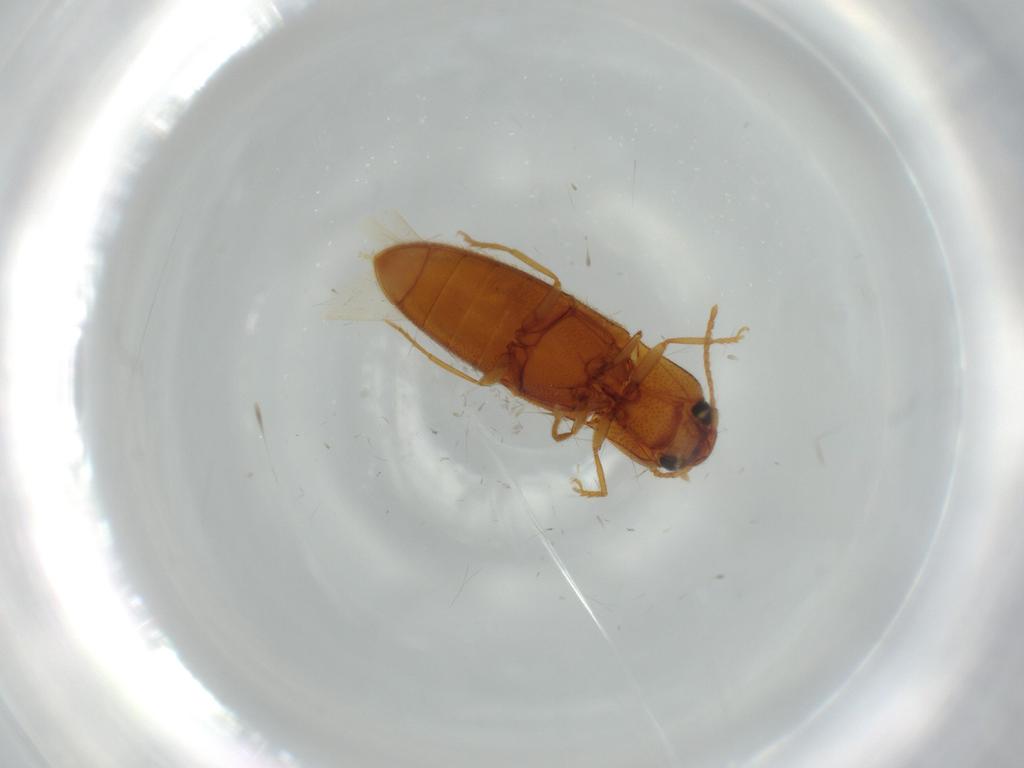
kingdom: Animalia
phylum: Arthropoda
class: Insecta
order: Coleoptera
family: Elateridae
